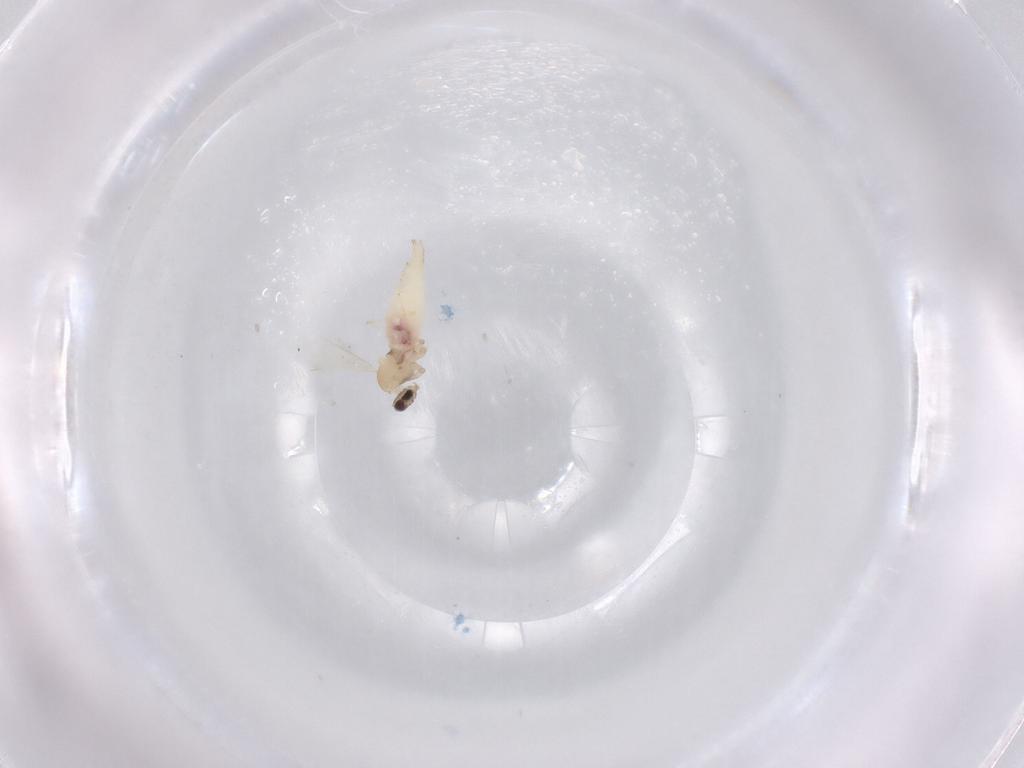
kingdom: Animalia
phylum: Arthropoda
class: Insecta
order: Diptera
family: Cecidomyiidae
